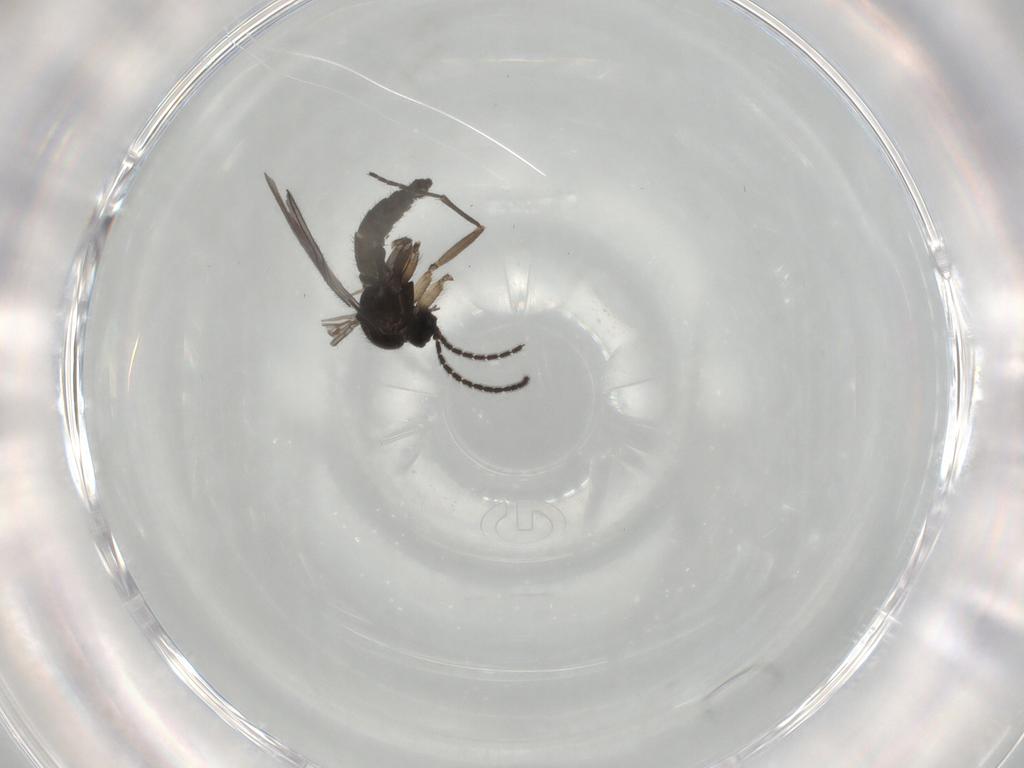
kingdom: Animalia
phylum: Arthropoda
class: Insecta
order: Diptera
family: Sciaridae
